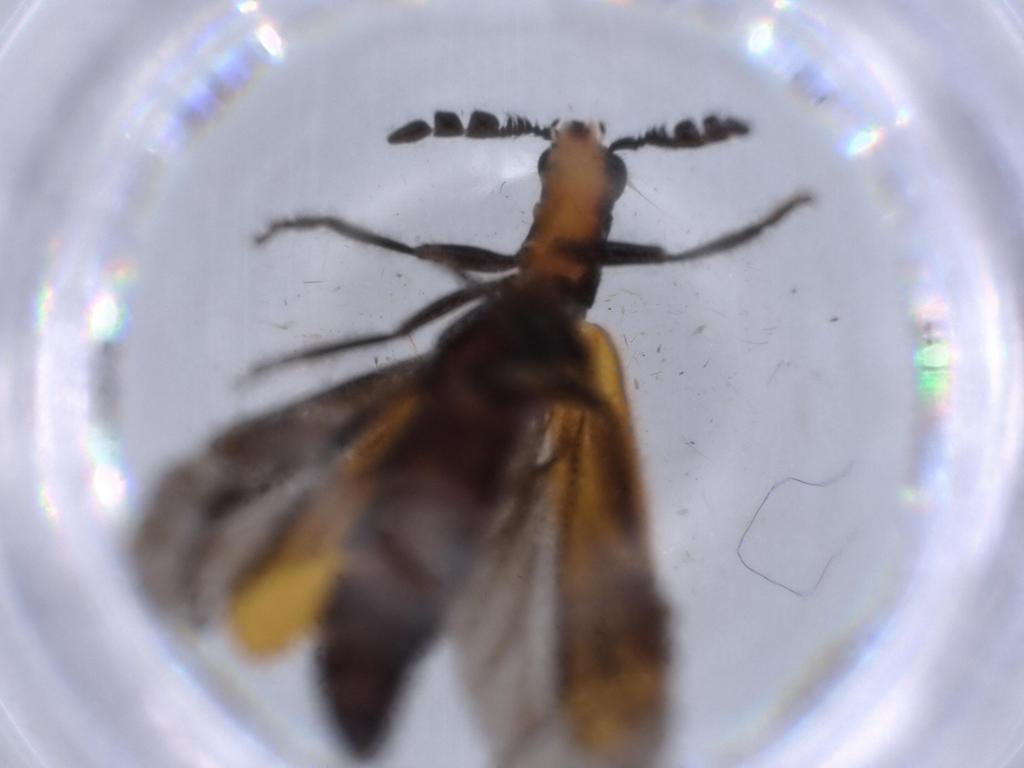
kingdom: Animalia
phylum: Arthropoda
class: Insecta
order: Coleoptera
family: Cleridae
